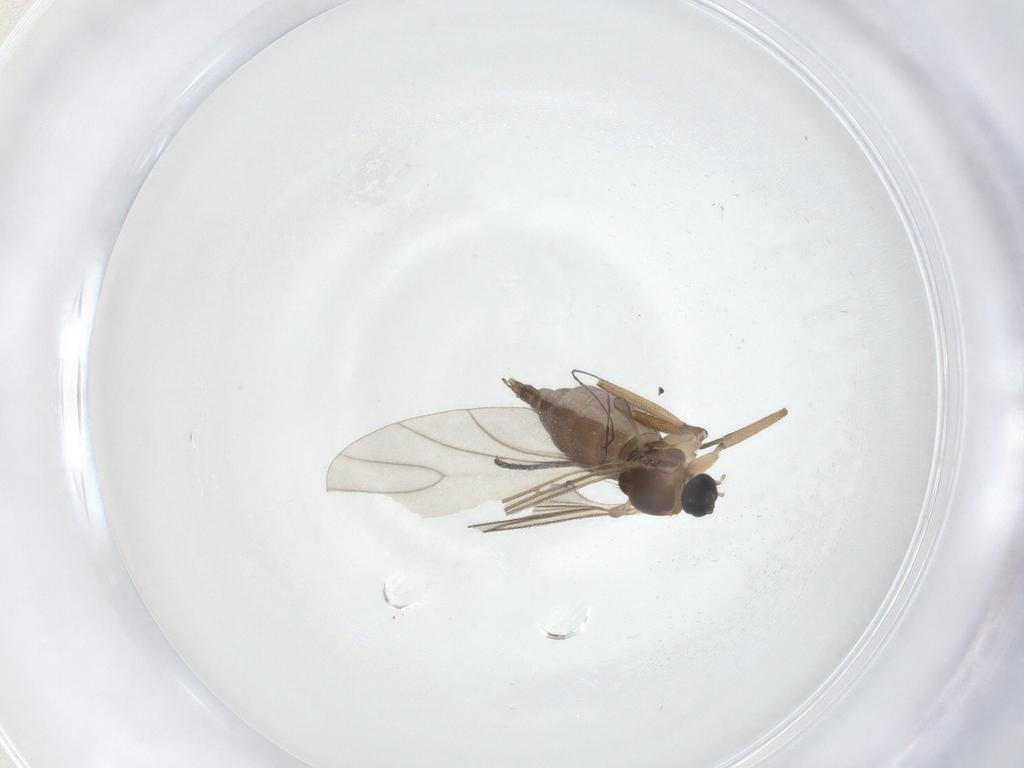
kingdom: Animalia
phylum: Arthropoda
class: Insecta
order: Diptera
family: Sciaridae
